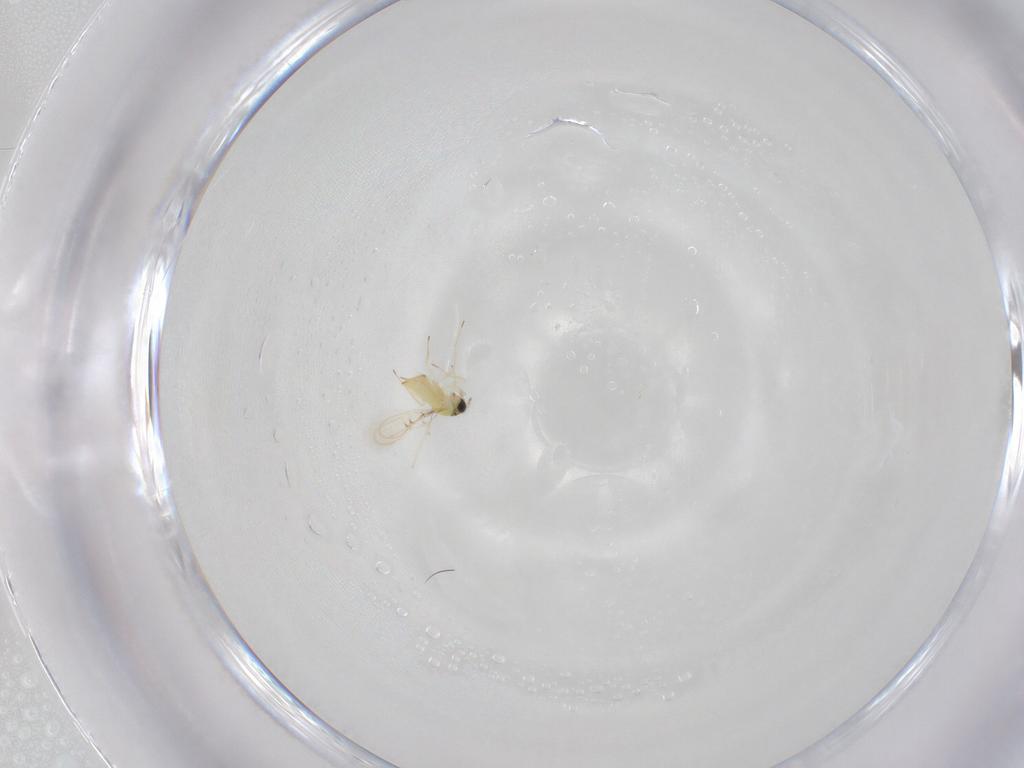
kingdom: Animalia
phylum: Arthropoda
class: Insecta
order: Hymenoptera
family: Trichogrammatidae
